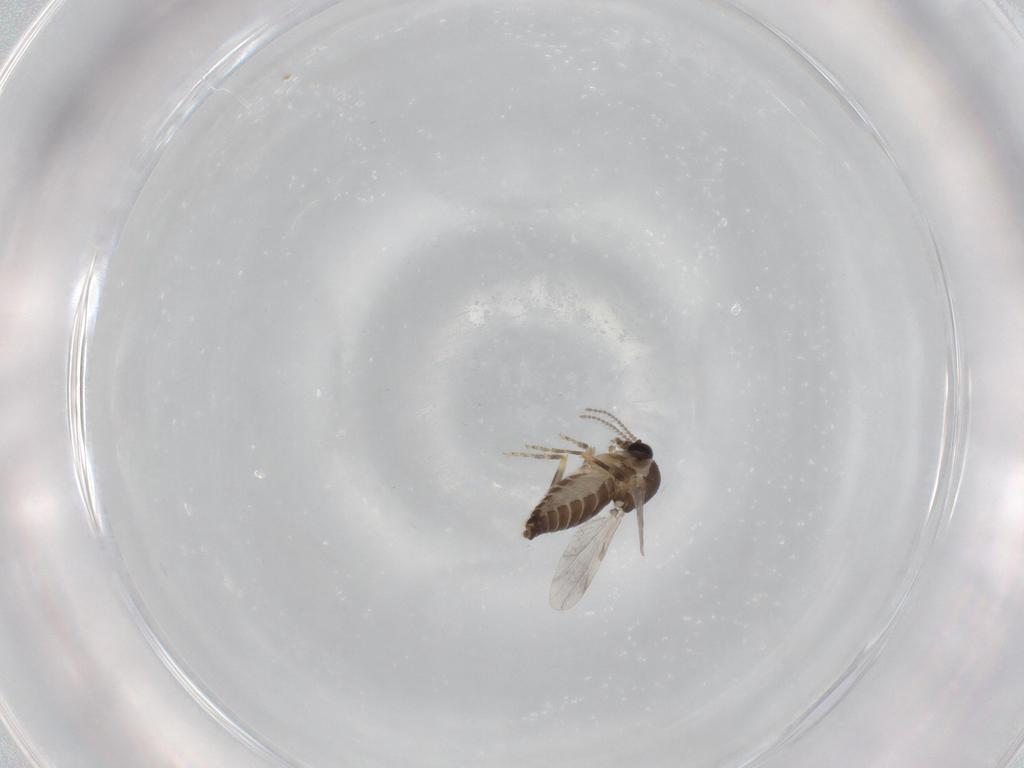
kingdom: Animalia
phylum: Arthropoda
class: Insecta
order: Diptera
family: Ceratopogonidae
